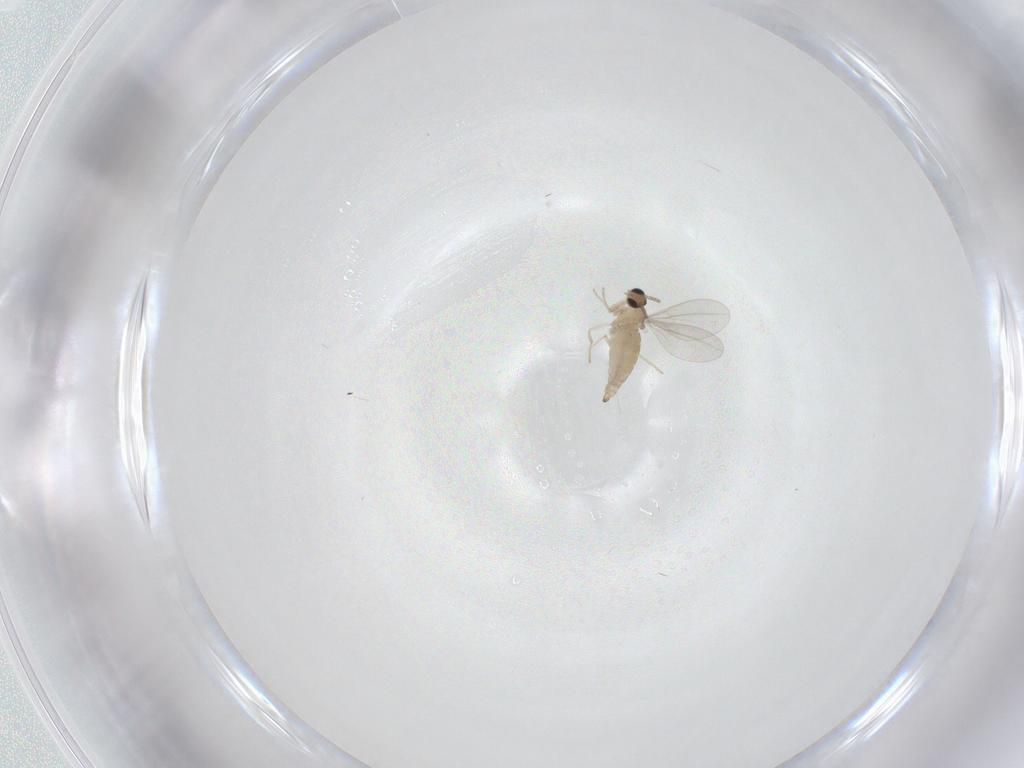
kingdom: Animalia
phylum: Arthropoda
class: Insecta
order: Diptera
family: Cecidomyiidae
